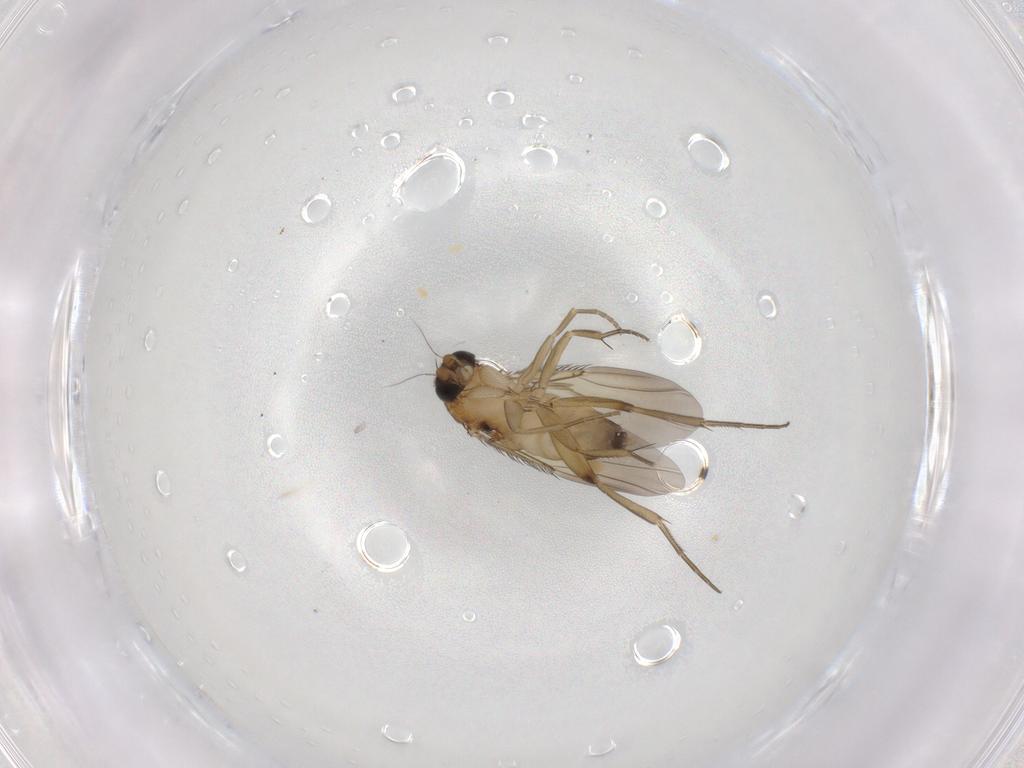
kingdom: Animalia
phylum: Arthropoda
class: Insecta
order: Diptera
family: Phoridae
